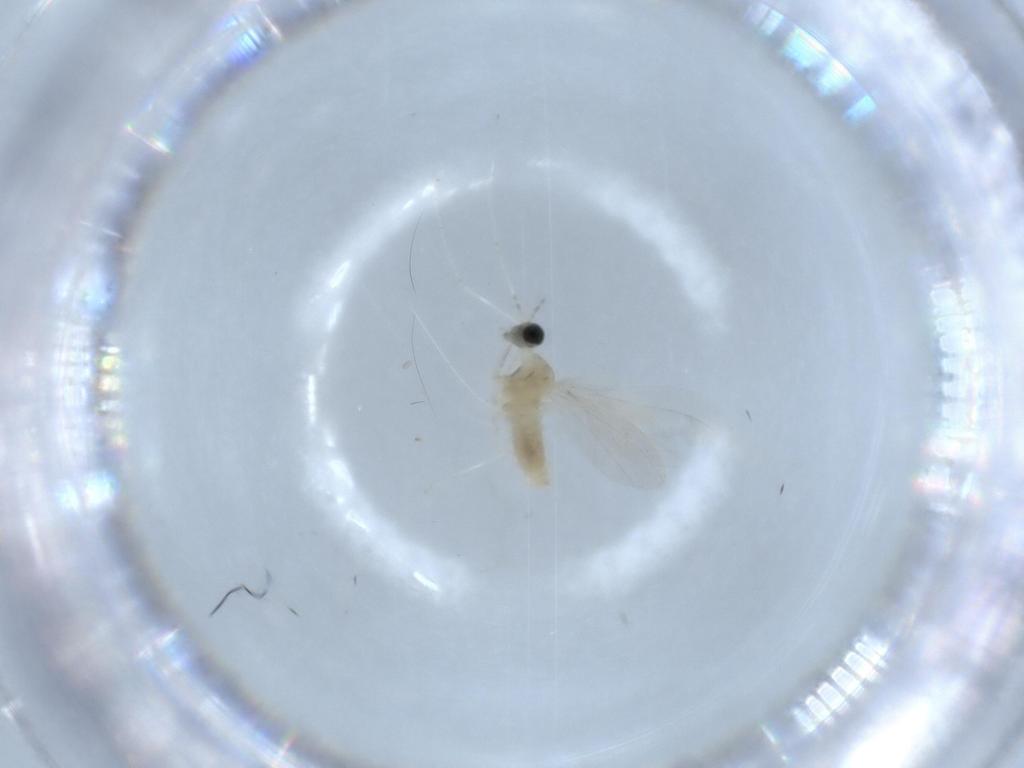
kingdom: Animalia
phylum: Arthropoda
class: Insecta
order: Diptera
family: Cecidomyiidae
